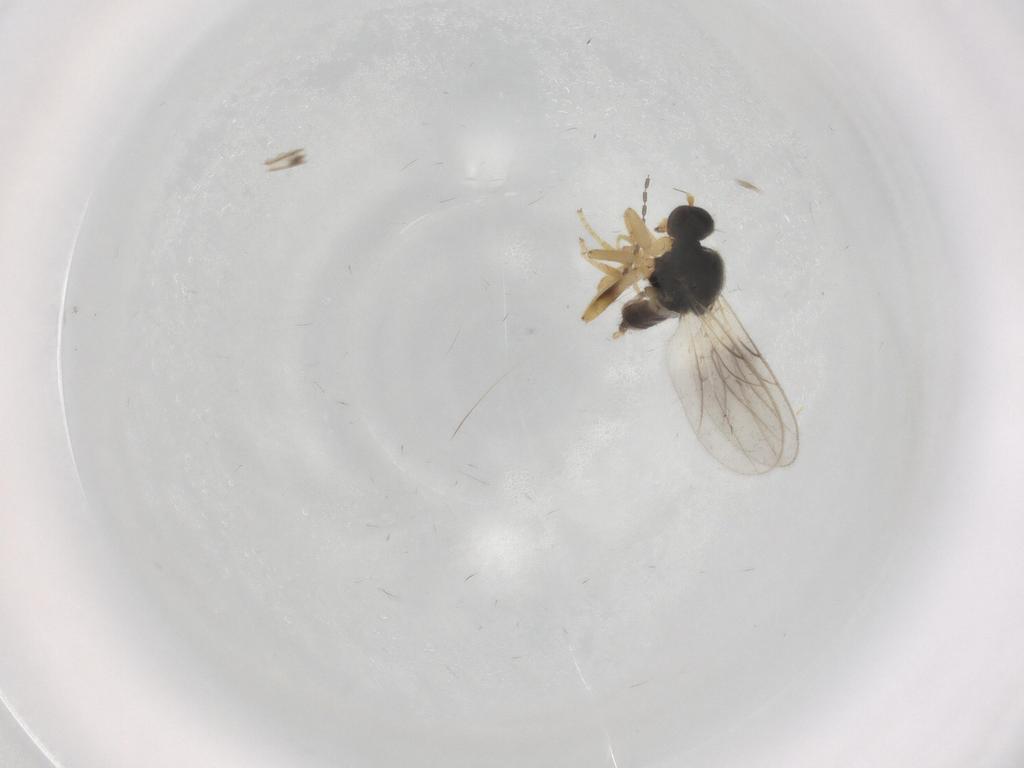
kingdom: Animalia
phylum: Arthropoda
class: Insecta
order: Diptera
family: Hybotidae
